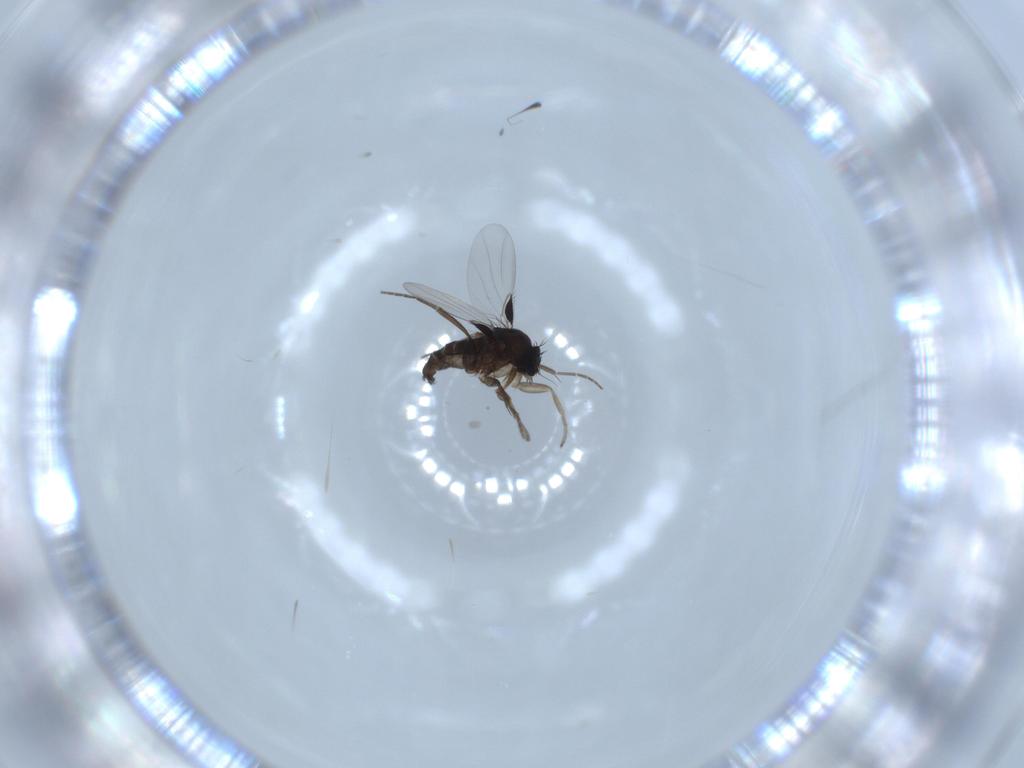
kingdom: Animalia
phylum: Arthropoda
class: Insecta
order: Diptera
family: Phoridae
